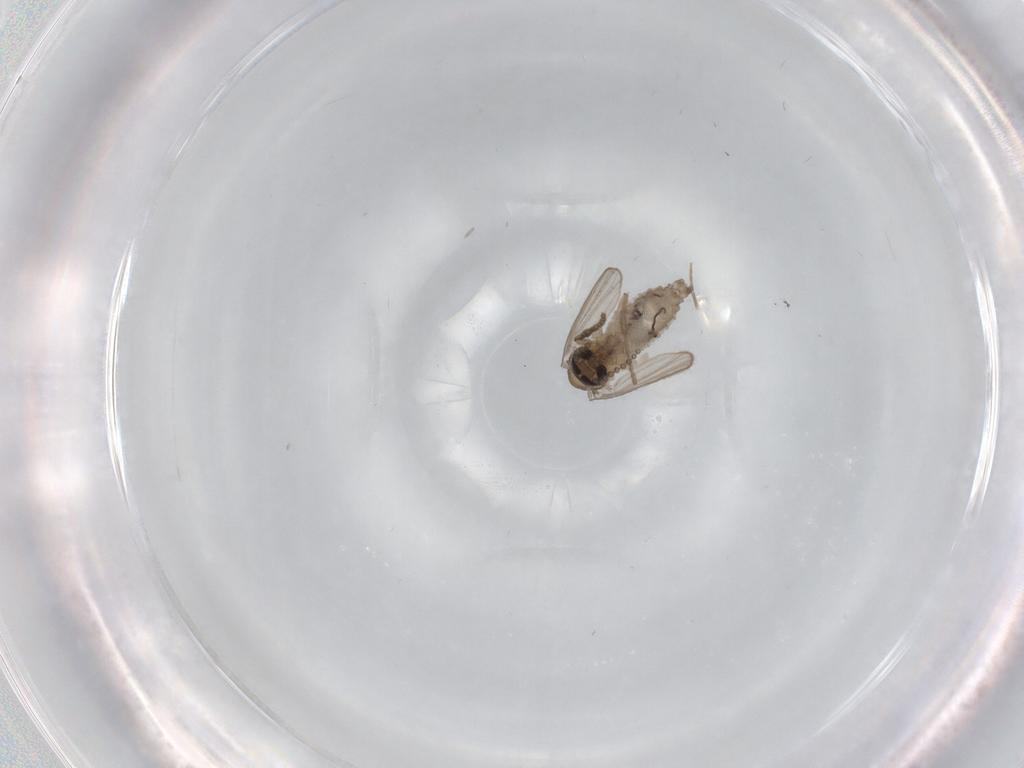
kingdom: Animalia
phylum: Arthropoda
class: Insecta
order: Diptera
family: Psychodidae
